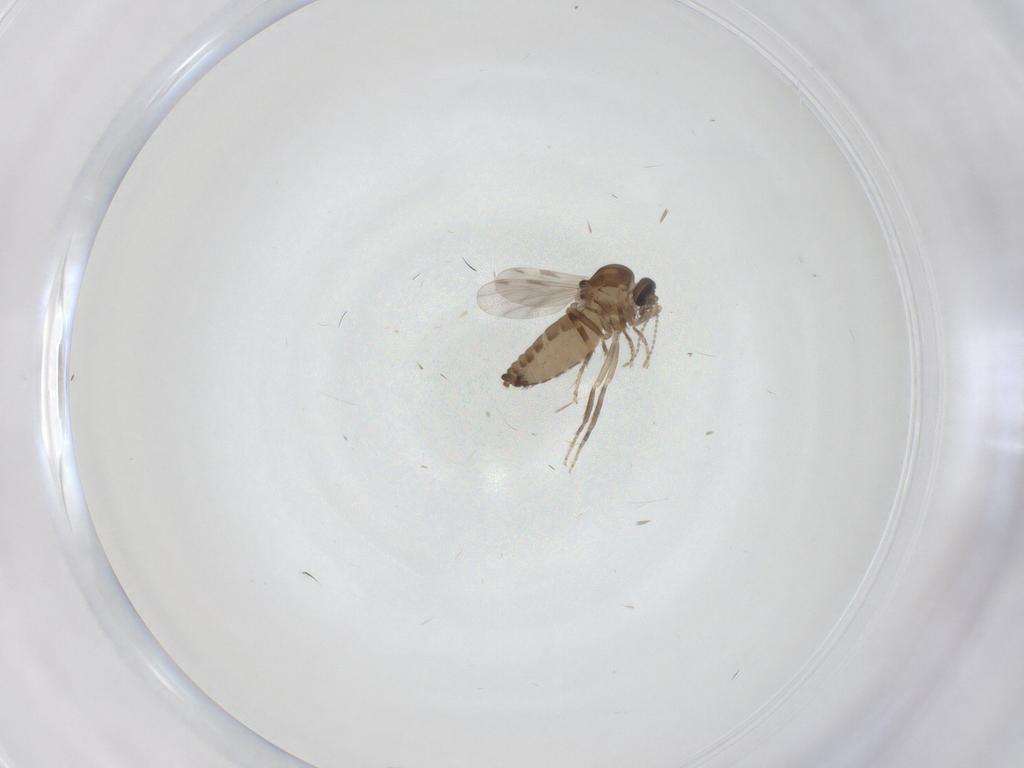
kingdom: Animalia
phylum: Arthropoda
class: Insecta
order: Diptera
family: Ceratopogonidae
